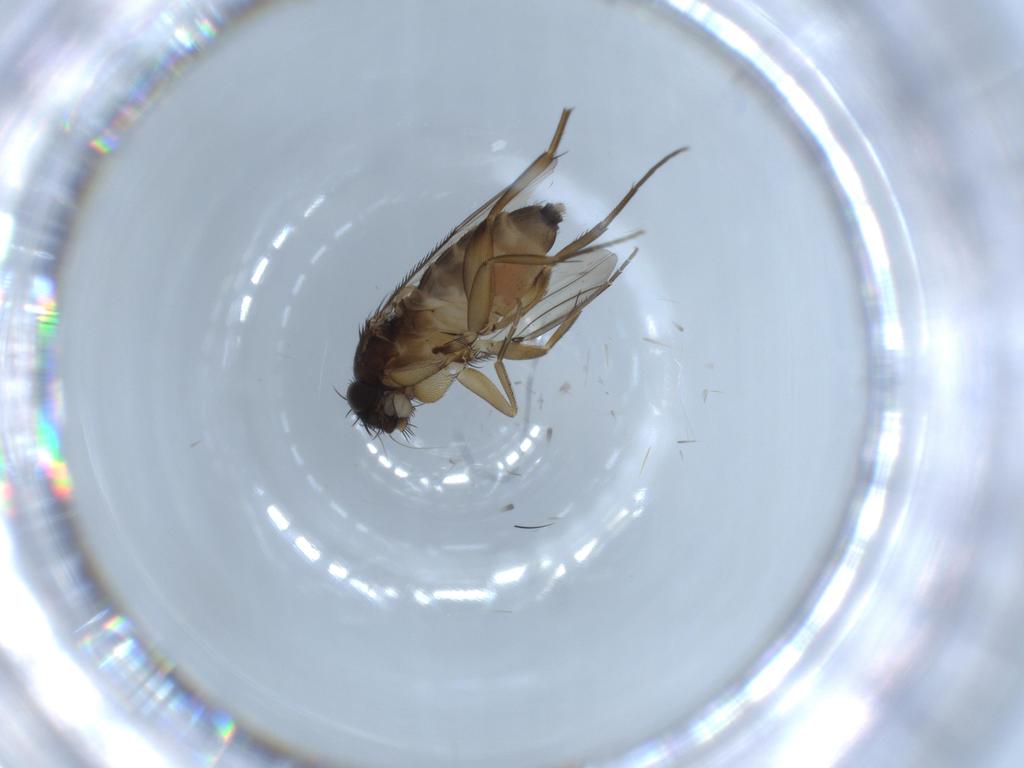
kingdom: Animalia
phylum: Arthropoda
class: Insecta
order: Diptera
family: Phoridae
